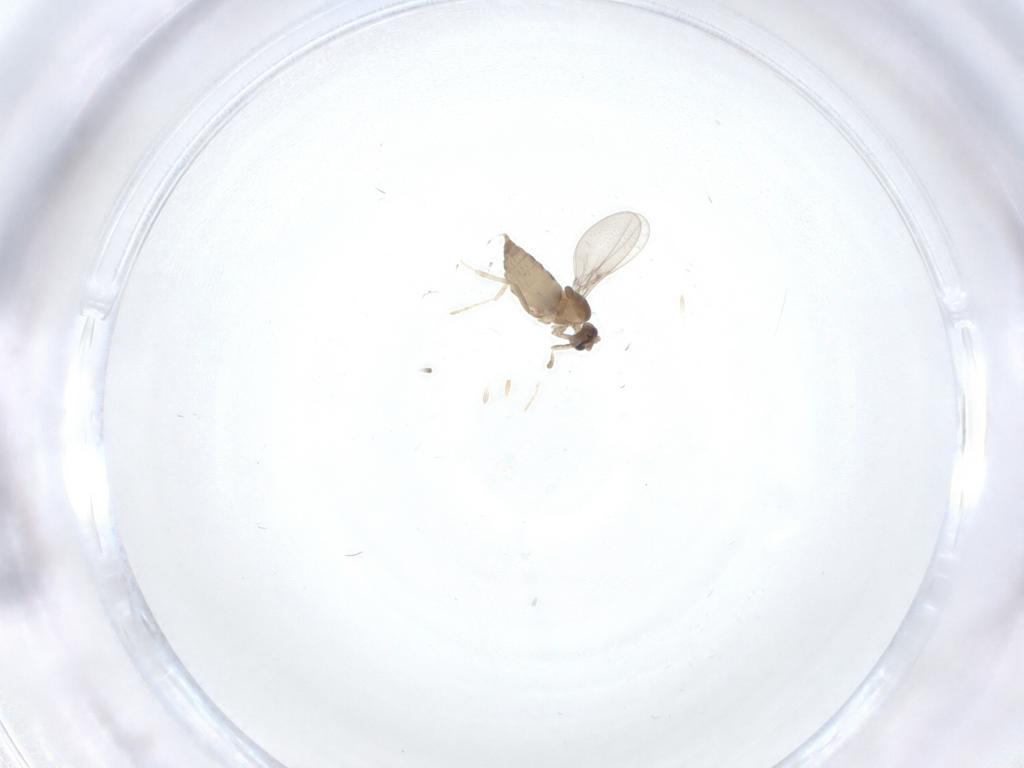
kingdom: Animalia
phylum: Arthropoda
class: Insecta
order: Diptera
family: Cecidomyiidae
